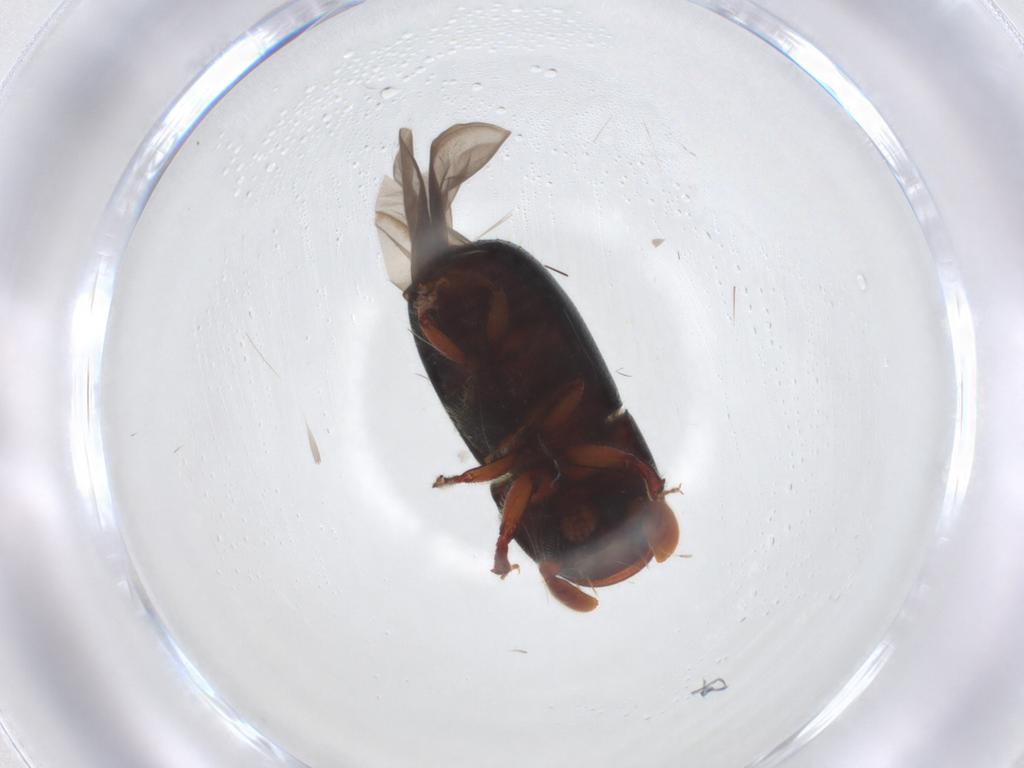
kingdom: Animalia
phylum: Arthropoda
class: Insecta
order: Coleoptera
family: Curculionidae
